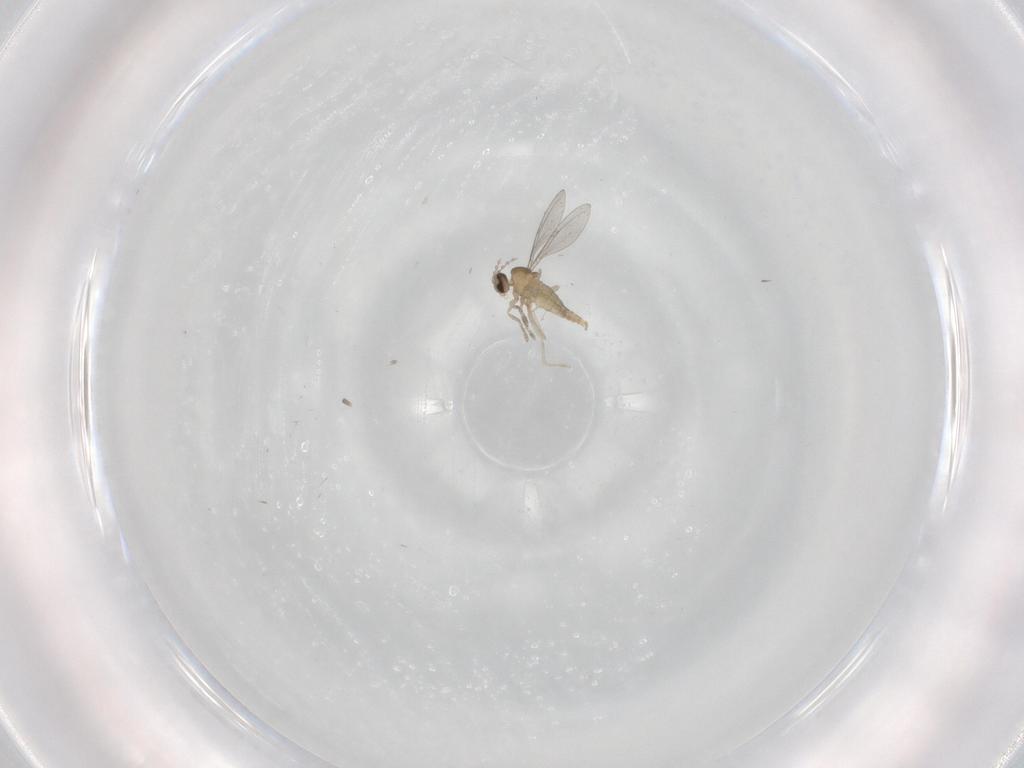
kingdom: Animalia
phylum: Arthropoda
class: Insecta
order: Diptera
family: Cecidomyiidae
